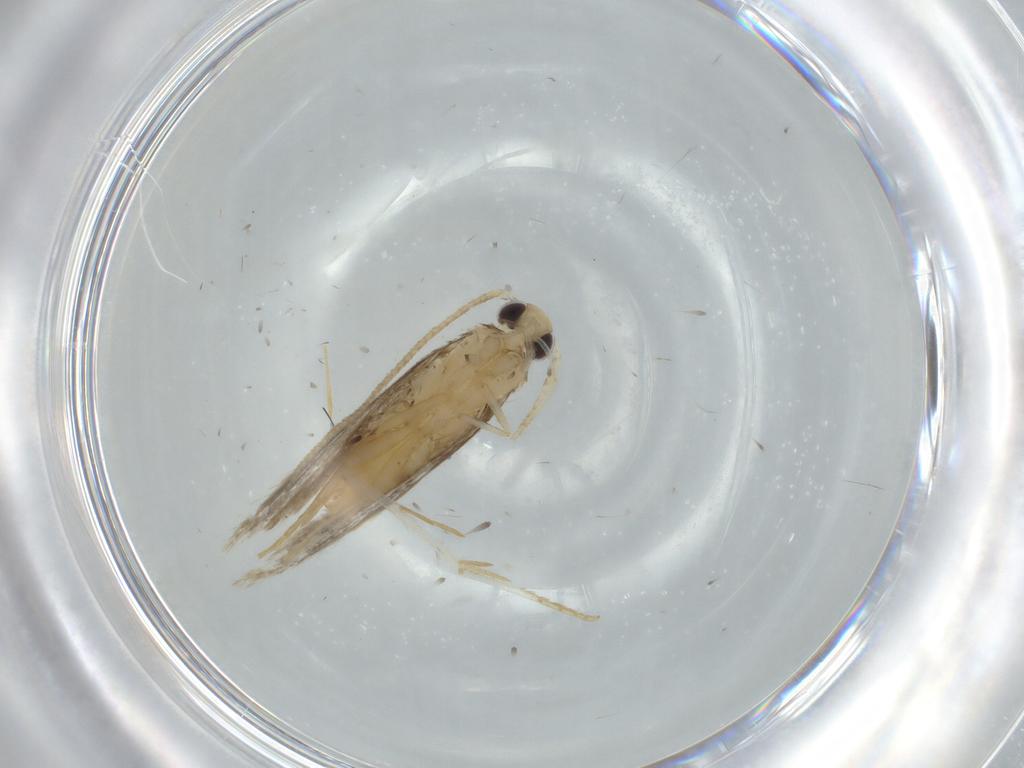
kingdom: Animalia
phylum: Arthropoda
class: Insecta
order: Lepidoptera
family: Gelechiidae
